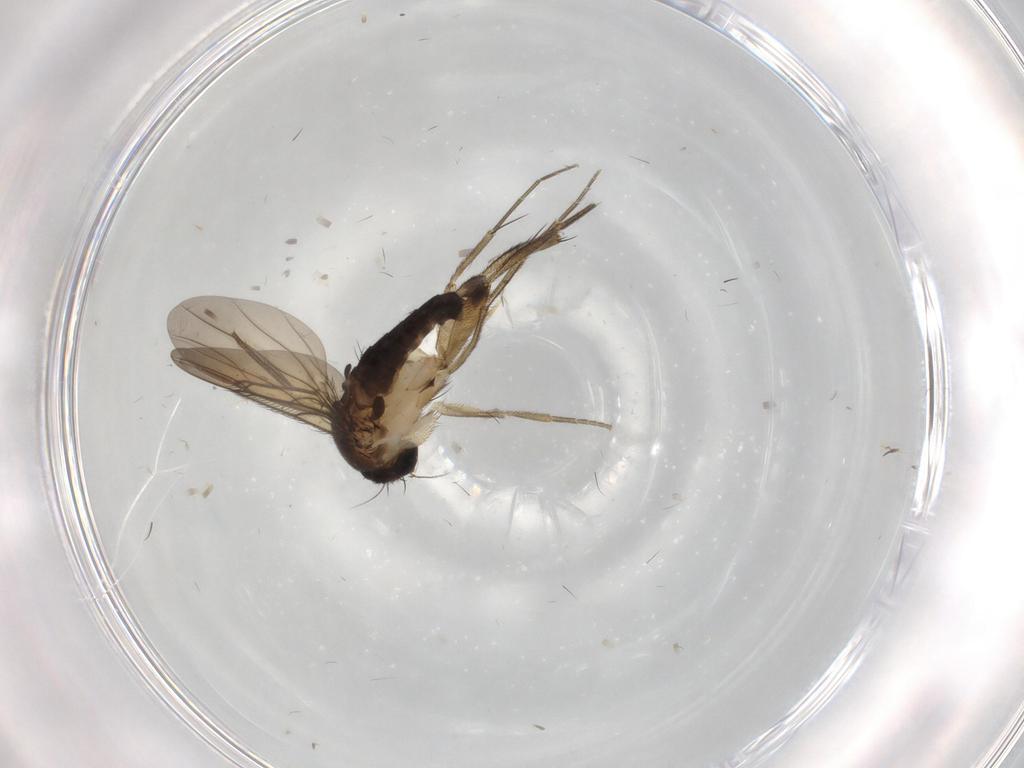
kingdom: Animalia
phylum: Arthropoda
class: Insecta
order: Diptera
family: Phoridae
